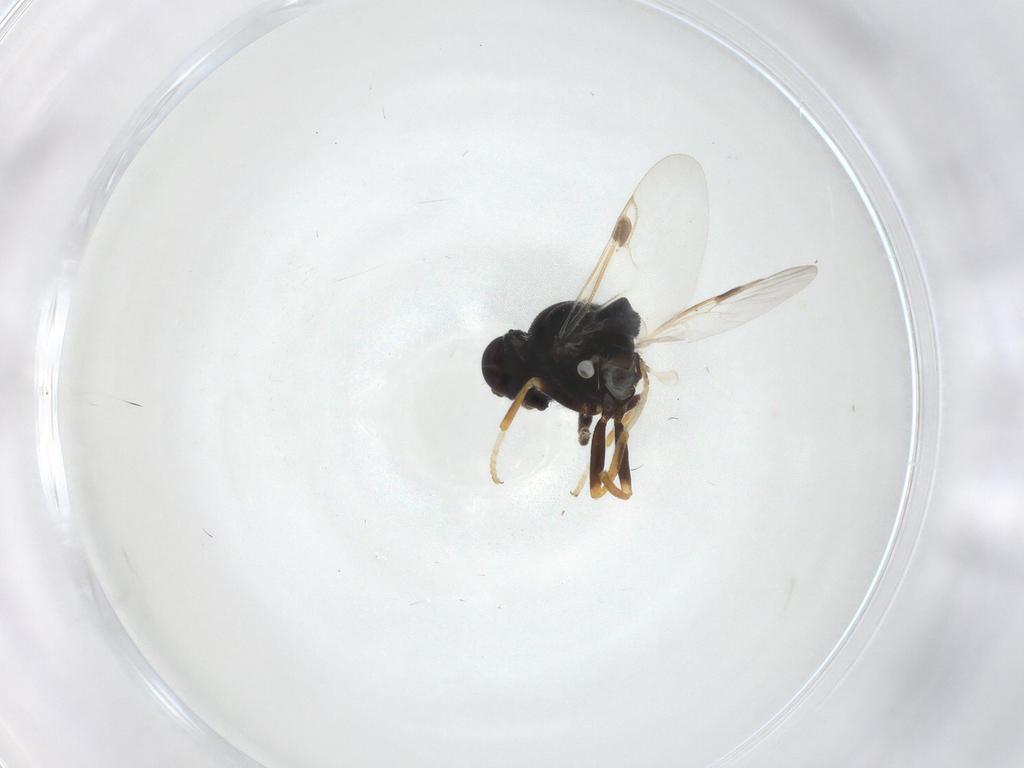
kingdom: Animalia
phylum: Arthropoda
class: Insecta
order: Diptera
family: Stratiomyidae
